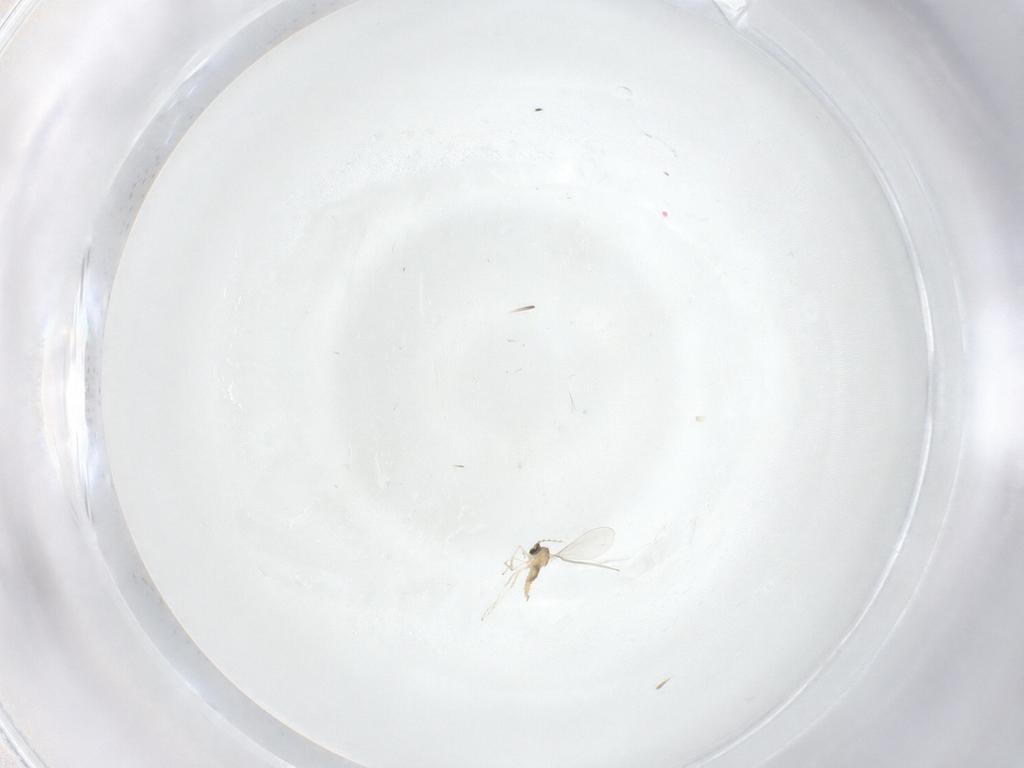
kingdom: Animalia
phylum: Arthropoda
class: Insecta
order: Diptera
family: Cecidomyiidae
